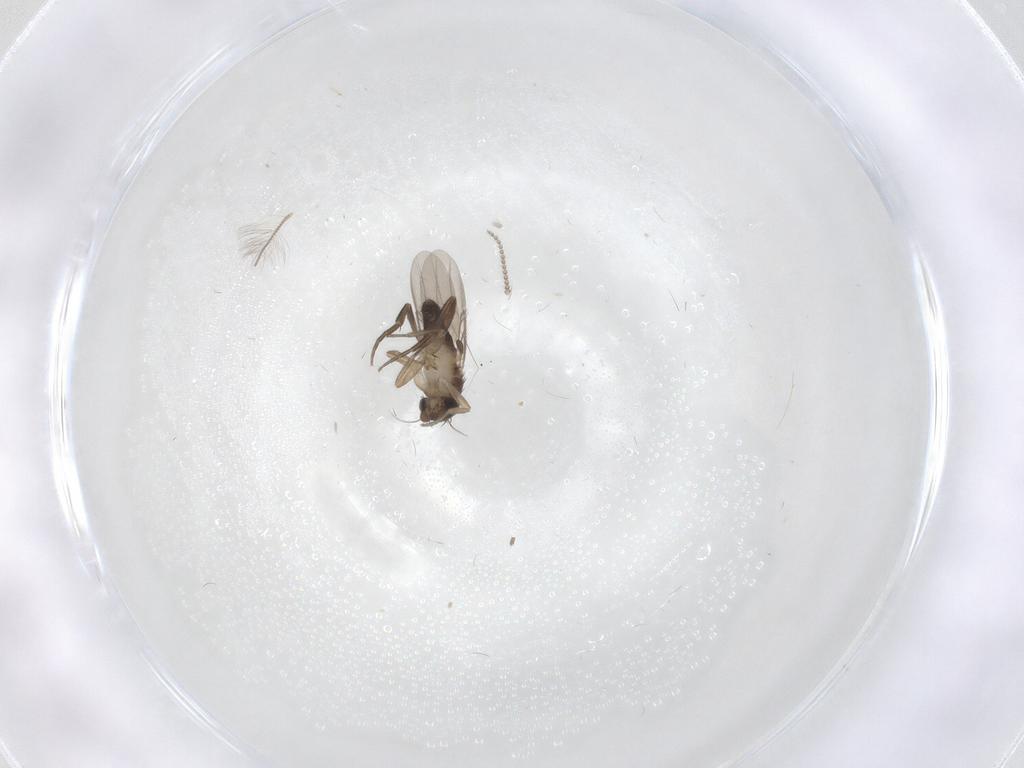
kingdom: Animalia
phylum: Arthropoda
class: Insecta
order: Diptera
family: Phoridae
